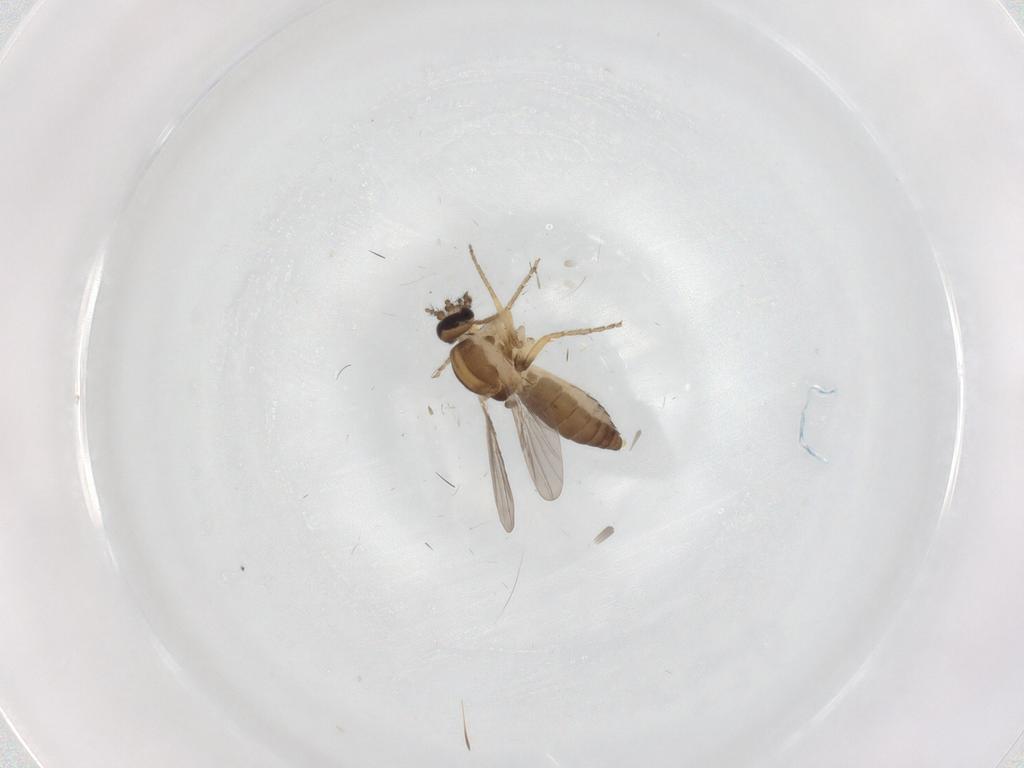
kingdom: Animalia
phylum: Arthropoda
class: Insecta
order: Diptera
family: Ceratopogonidae
